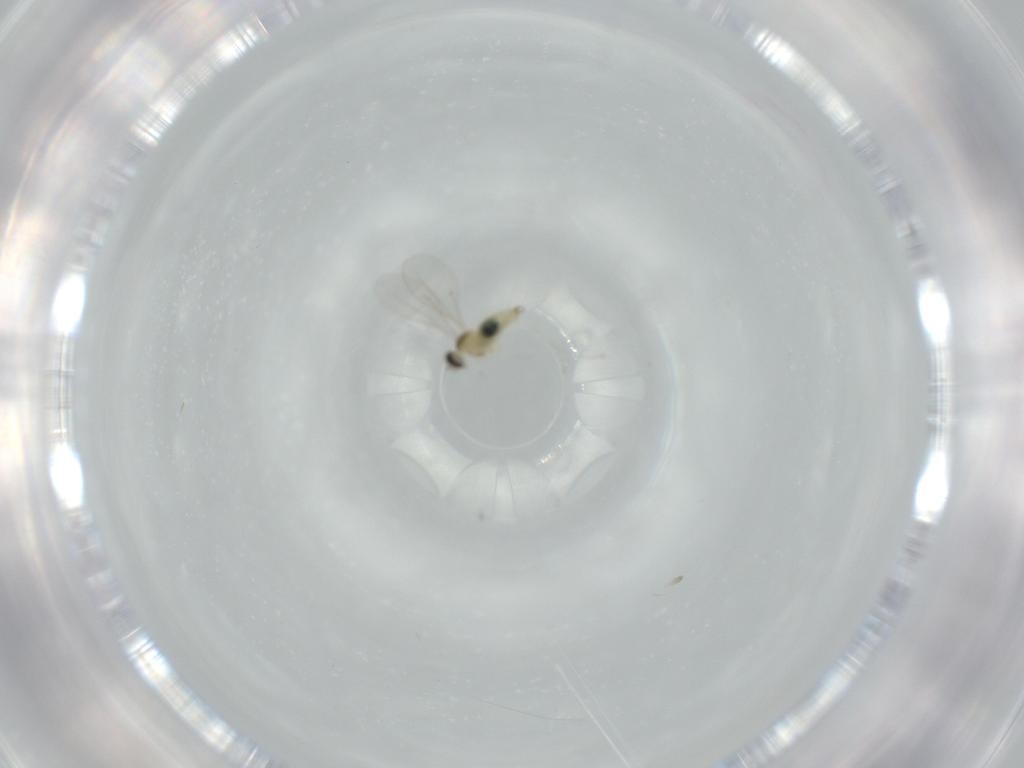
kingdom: Animalia
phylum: Arthropoda
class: Insecta
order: Diptera
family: Cecidomyiidae
